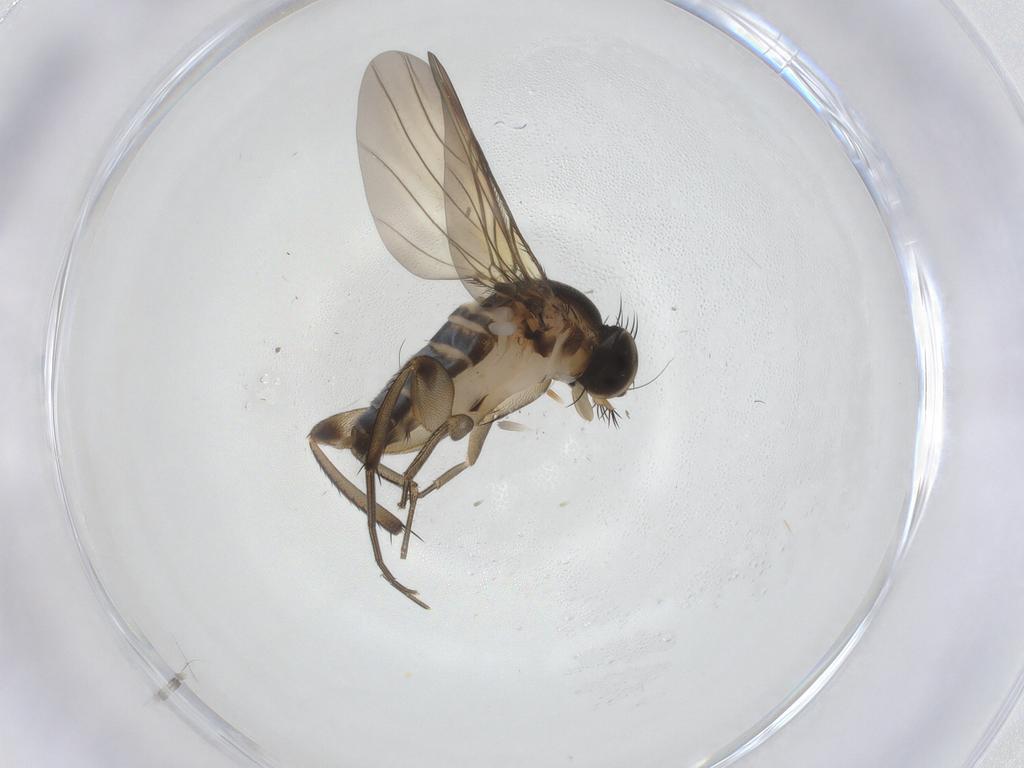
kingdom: Animalia
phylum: Arthropoda
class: Insecta
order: Diptera
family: Phoridae
